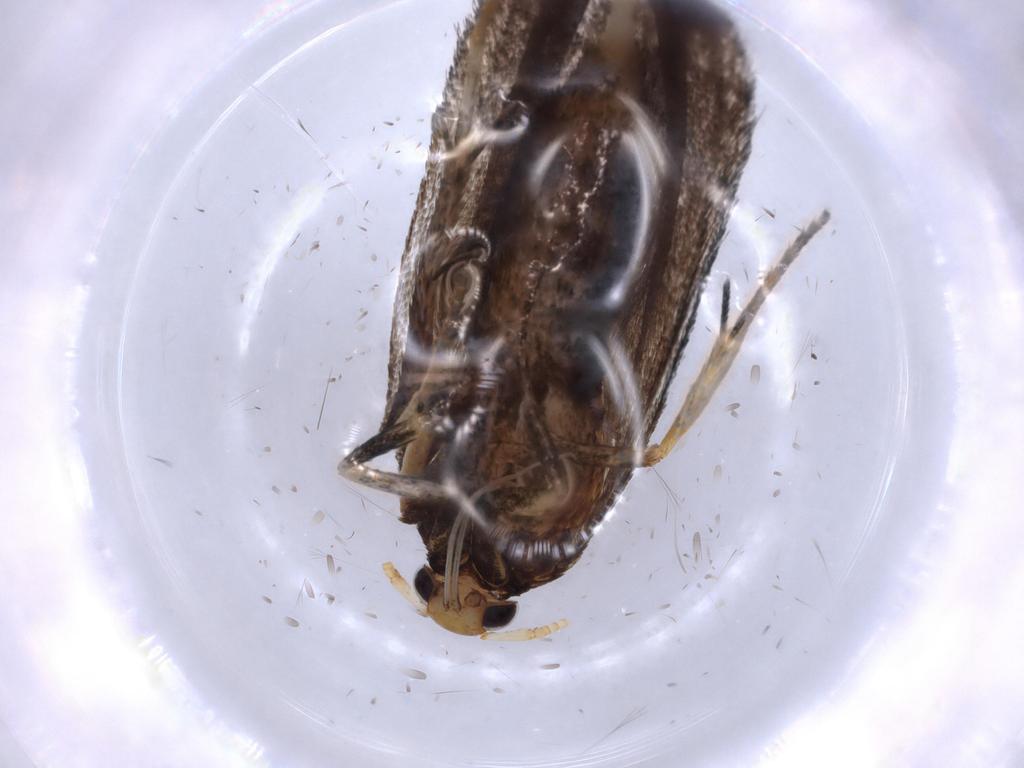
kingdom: Animalia
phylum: Arthropoda
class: Insecta
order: Lepidoptera
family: Lecithoceridae
